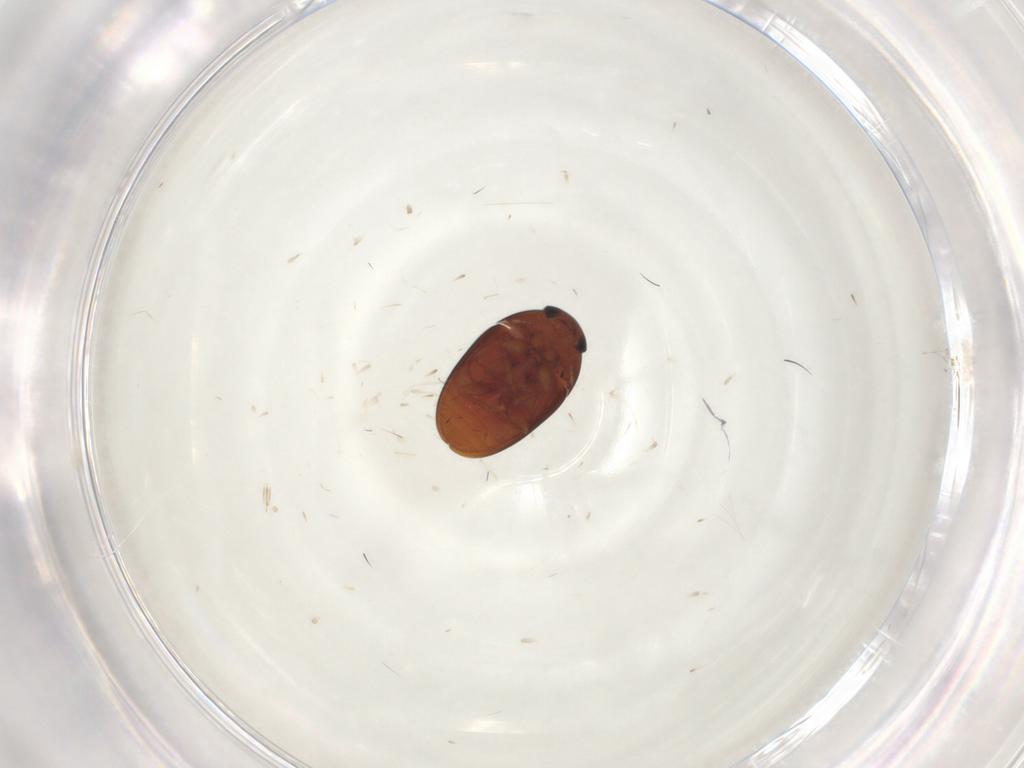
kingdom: Animalia
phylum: Arthropoda
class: Insecta
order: Coleoptera
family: Phalacridae
